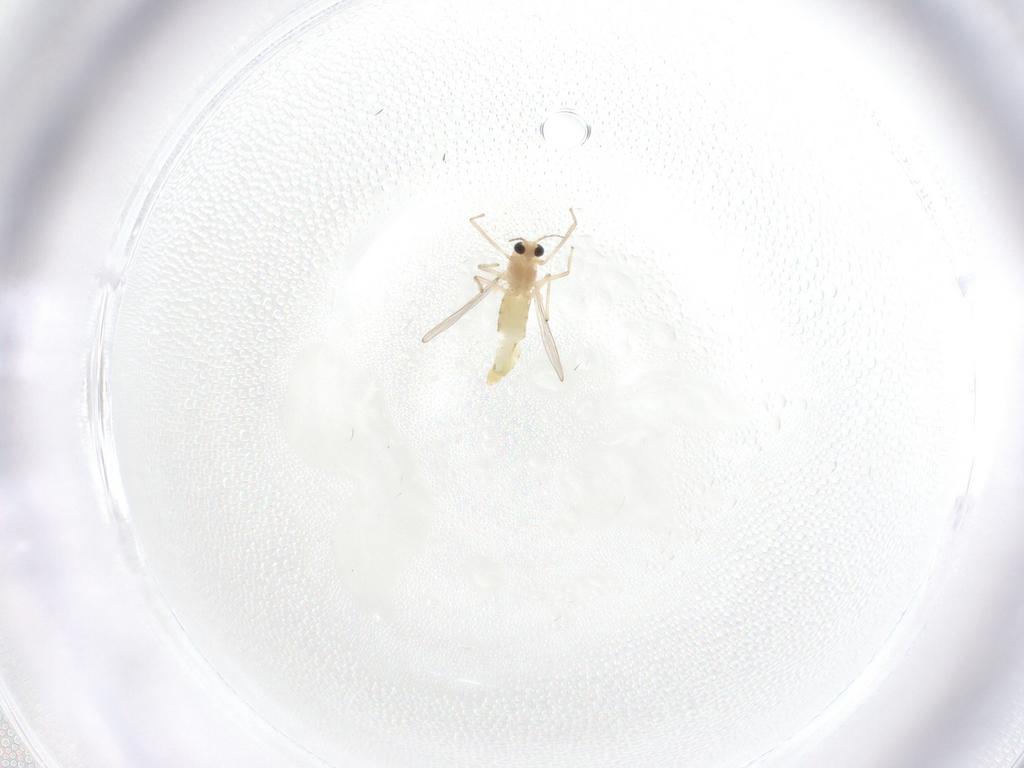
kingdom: Animalia
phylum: Arthropoda
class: Insecta
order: Diptera
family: Chironomidae
